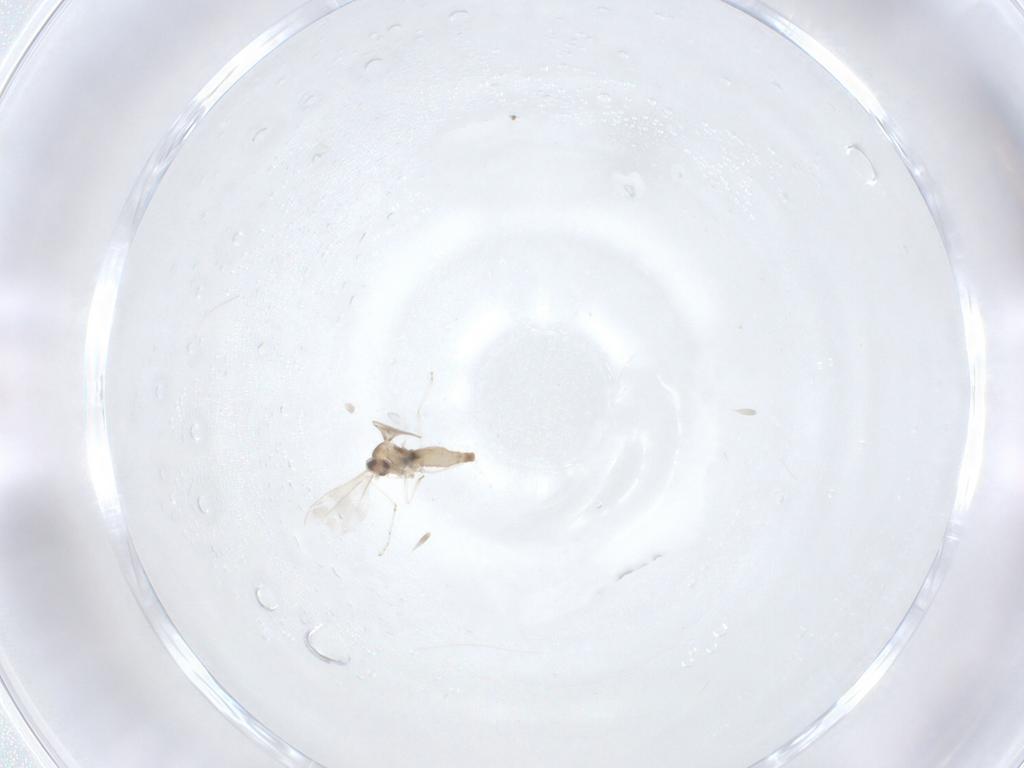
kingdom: Animalia
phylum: Arthropoda
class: Insecta
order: Diptera
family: Cecidomyiidae
